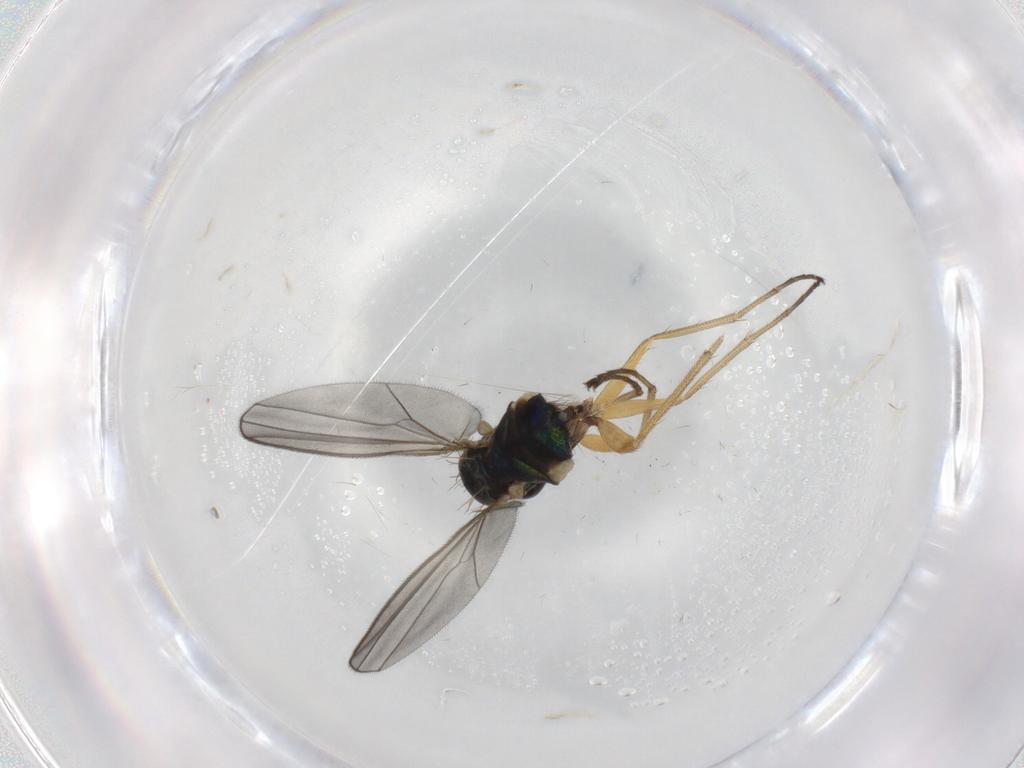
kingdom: Animalia
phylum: Arthropoda
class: Insecta
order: Diptera
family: Dolichopodidae
